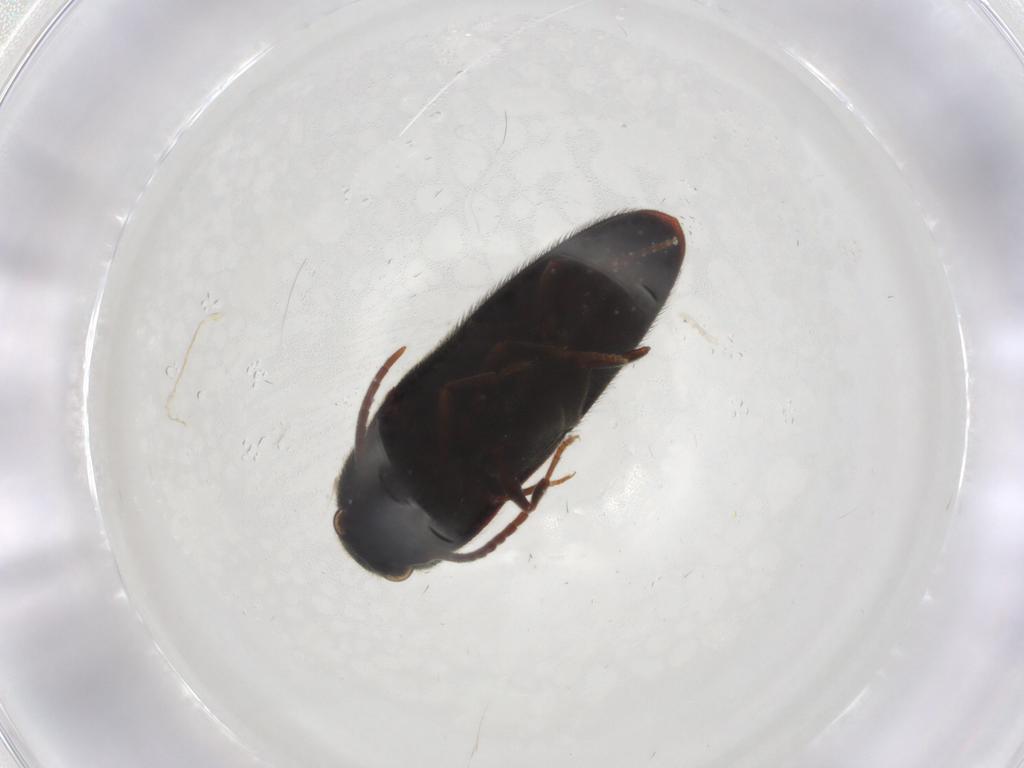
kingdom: Animalia
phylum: Arthropoda
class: Insecta
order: Coleoptera
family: Eucnemidae
